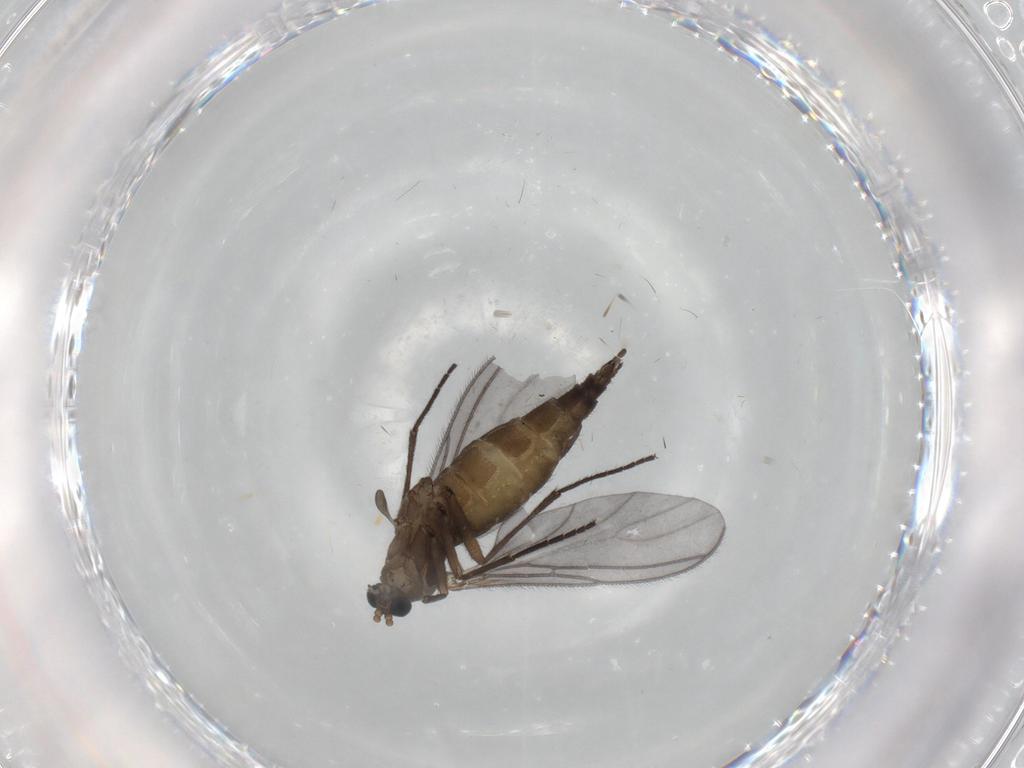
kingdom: Animalia
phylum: Arthropoda
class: Insecta
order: Diptera
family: Sciaridae
